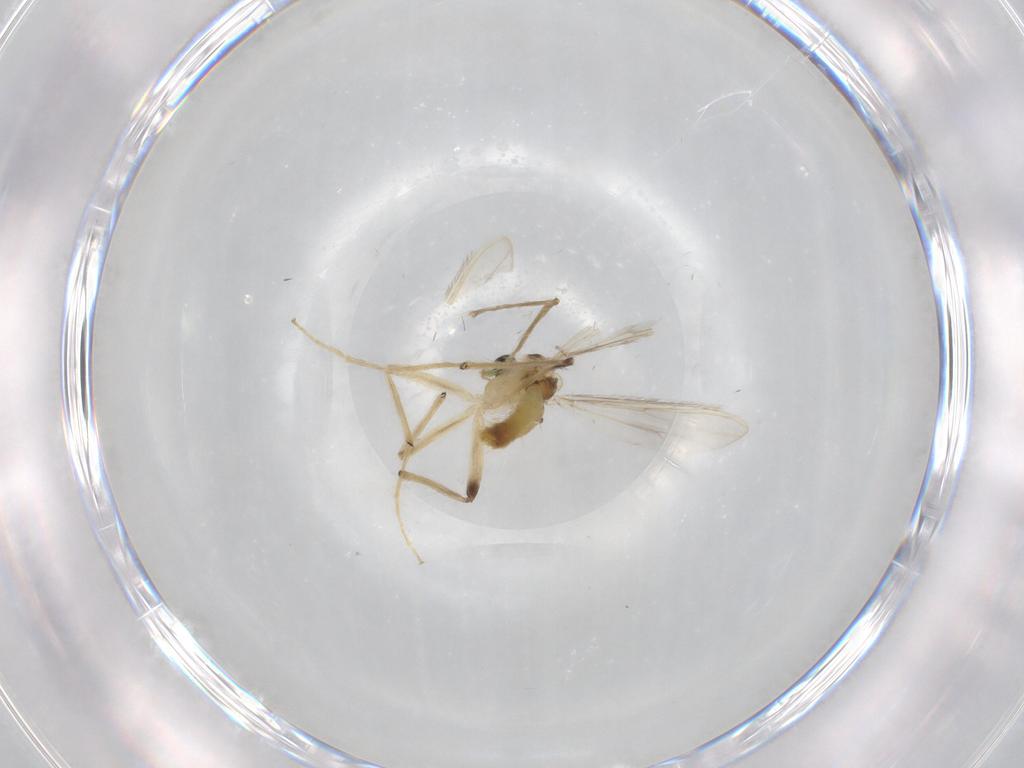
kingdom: Animalia
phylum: Arthropoda
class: Insecta
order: Diptera
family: Chironomidae
